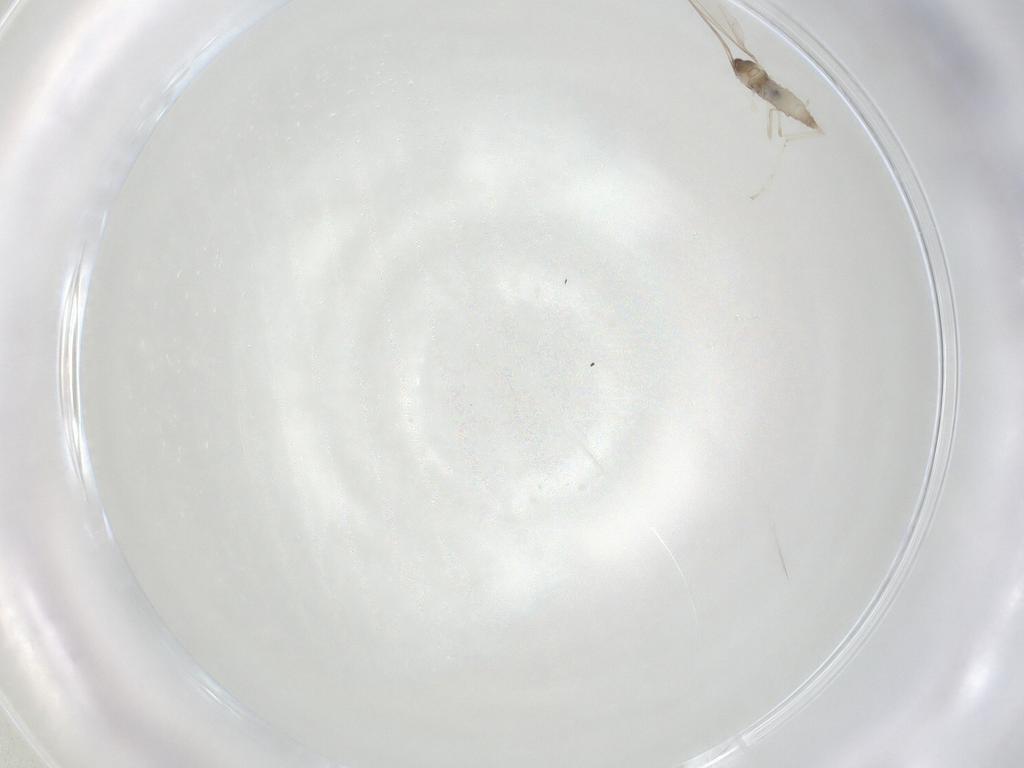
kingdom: Animalia
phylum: Arthropoda
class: Insecta
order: Diptera
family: Cecidomyiidae
